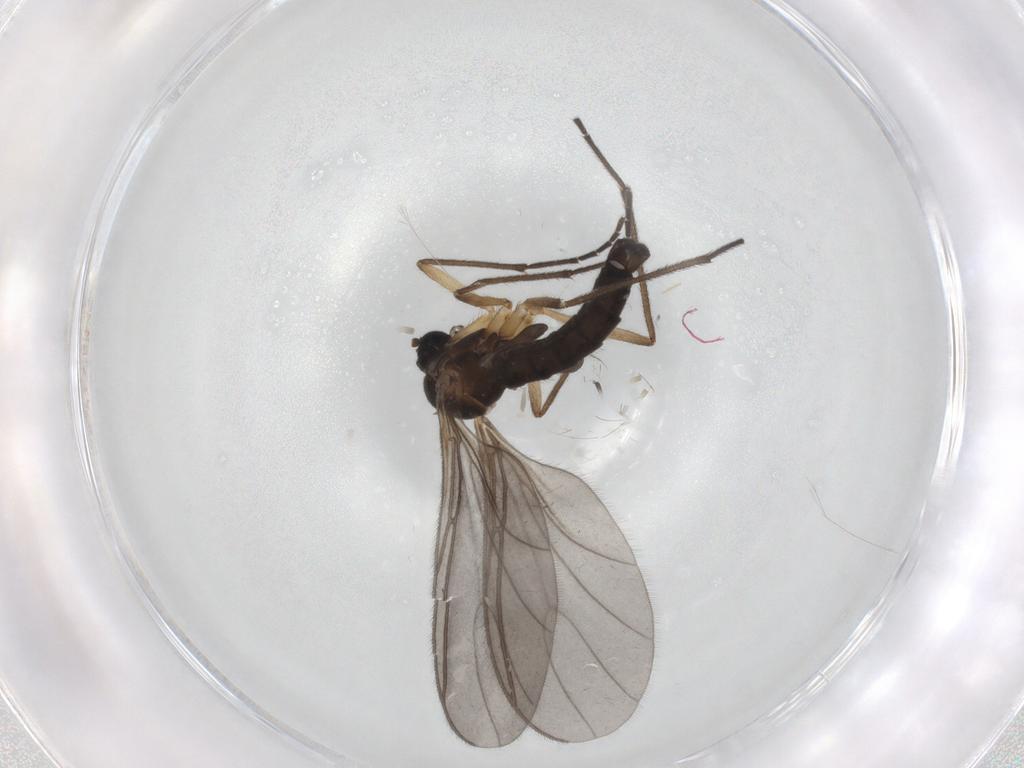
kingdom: Animalia
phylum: Arthropoda
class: Insecta
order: Diptera
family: Sciaridae
